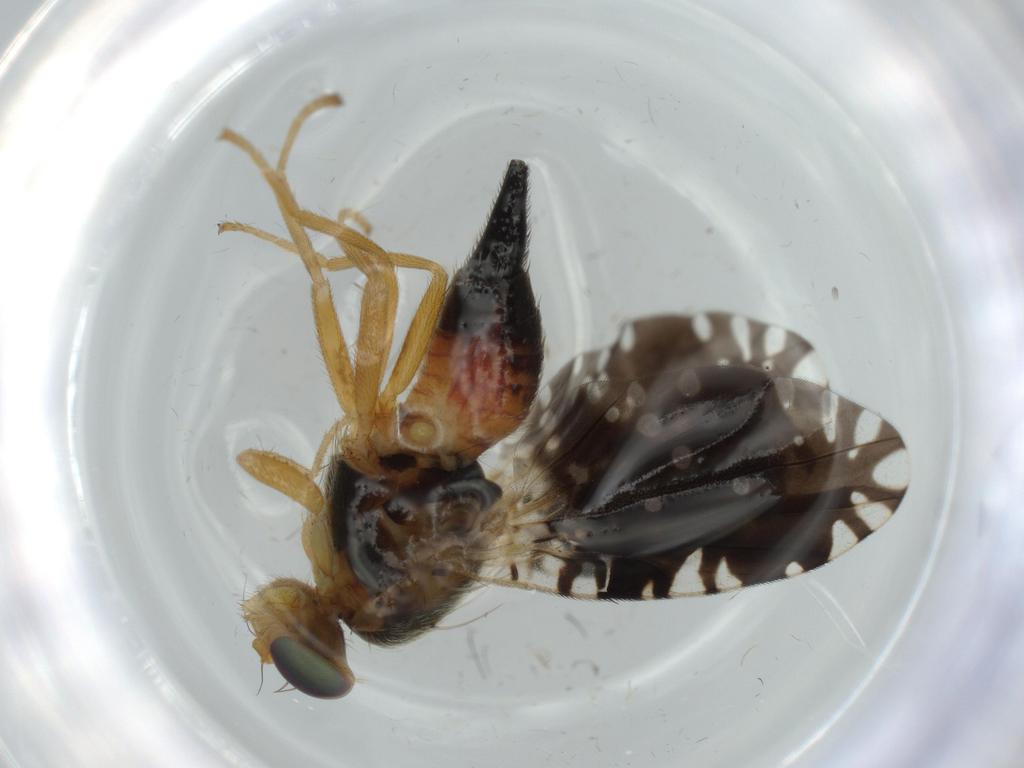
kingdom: Animalia
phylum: Arthropoda
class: Insecta
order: Diptera
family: Tephritidae
